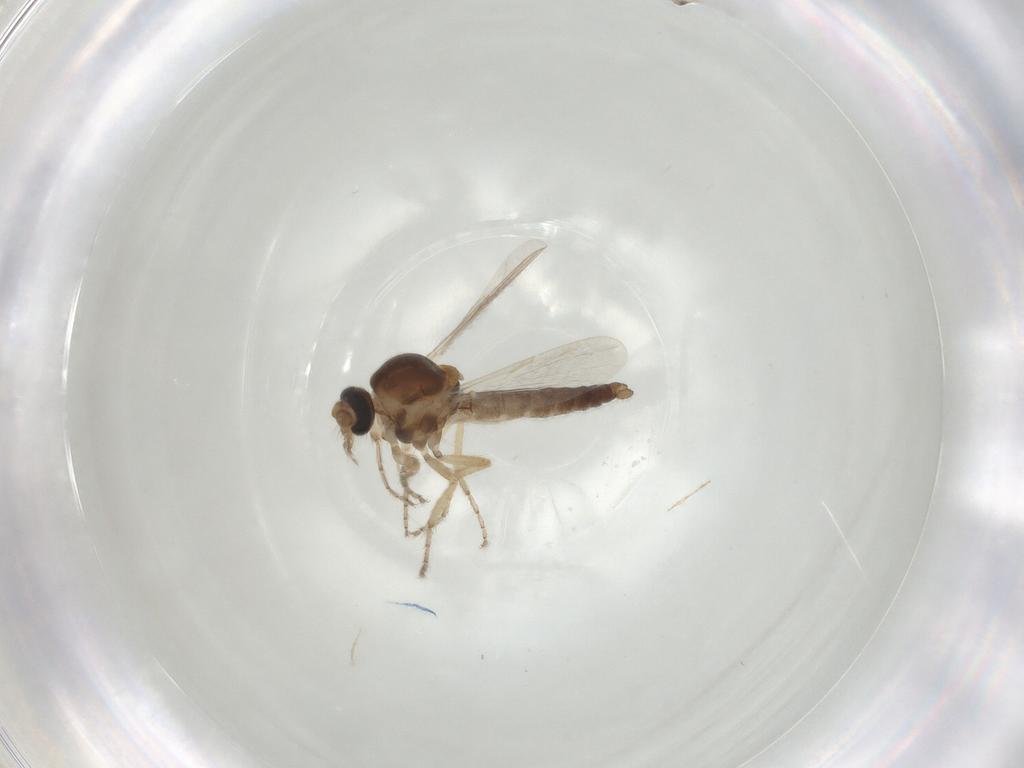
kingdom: Animalia
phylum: Arthropoda
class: Insecta
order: Diptera
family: Ceratopogonidae
